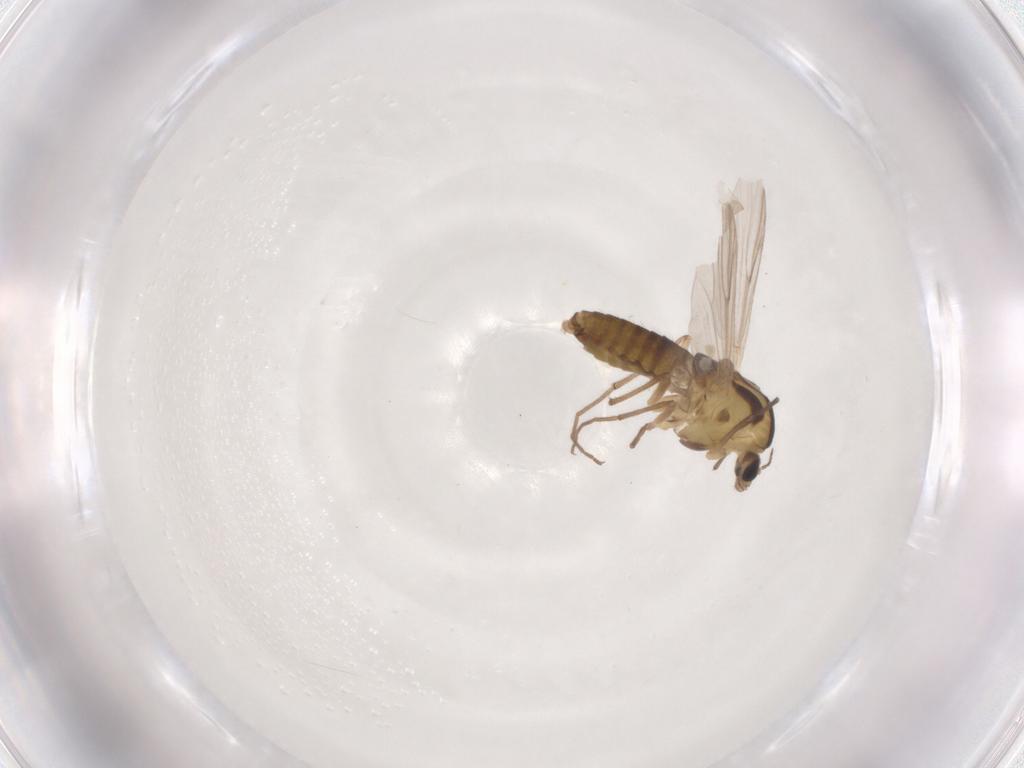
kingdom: Animalia
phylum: Arthropoda
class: Insecta
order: Diptera
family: Chironomidae
